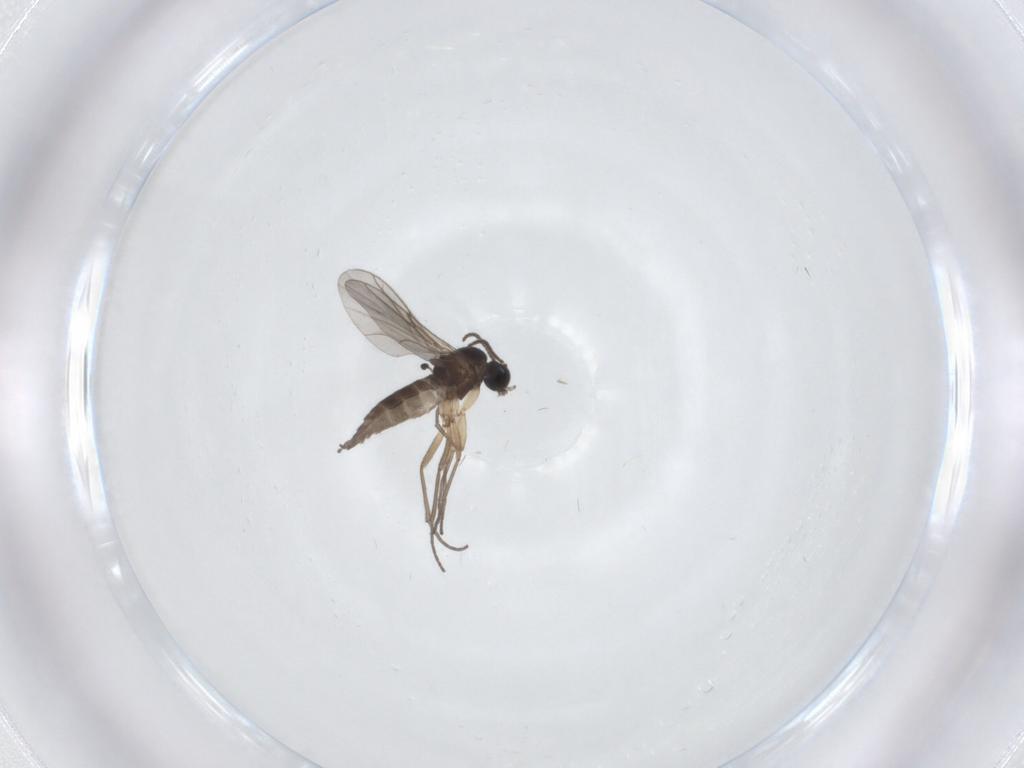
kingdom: Animalia
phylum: Arthropoda
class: Insecta
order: Diptera
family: Sciaridae
